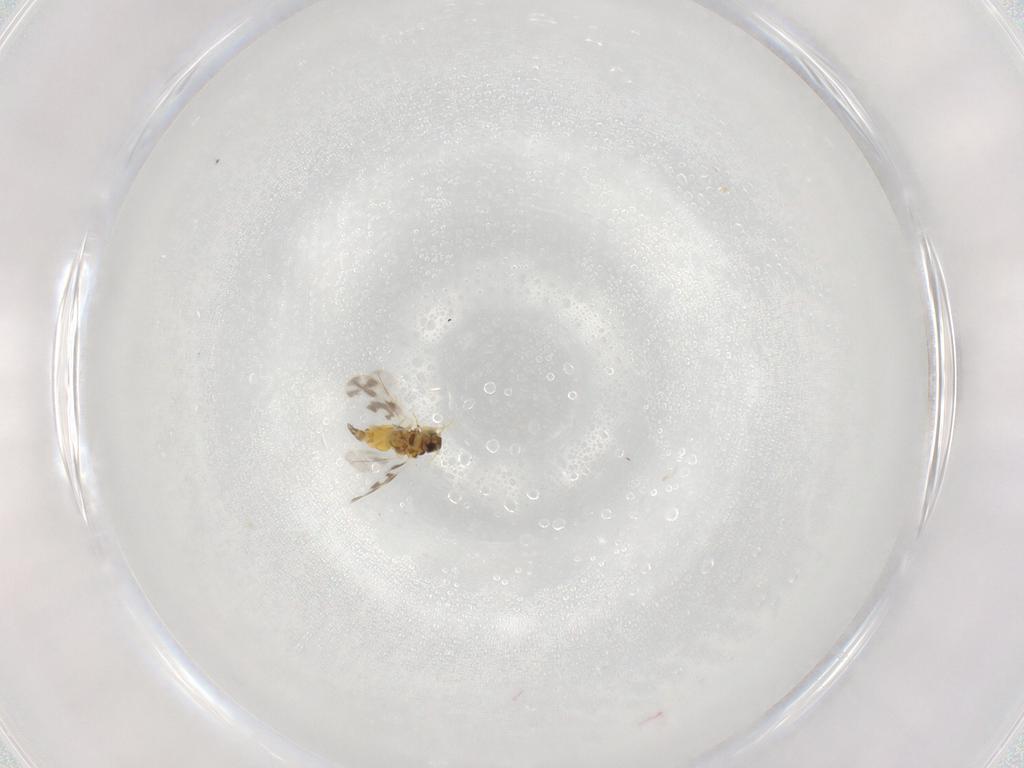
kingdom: Animalia
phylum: Arthropoda
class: Insecta
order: Hemiptera
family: Aleyrodidae
